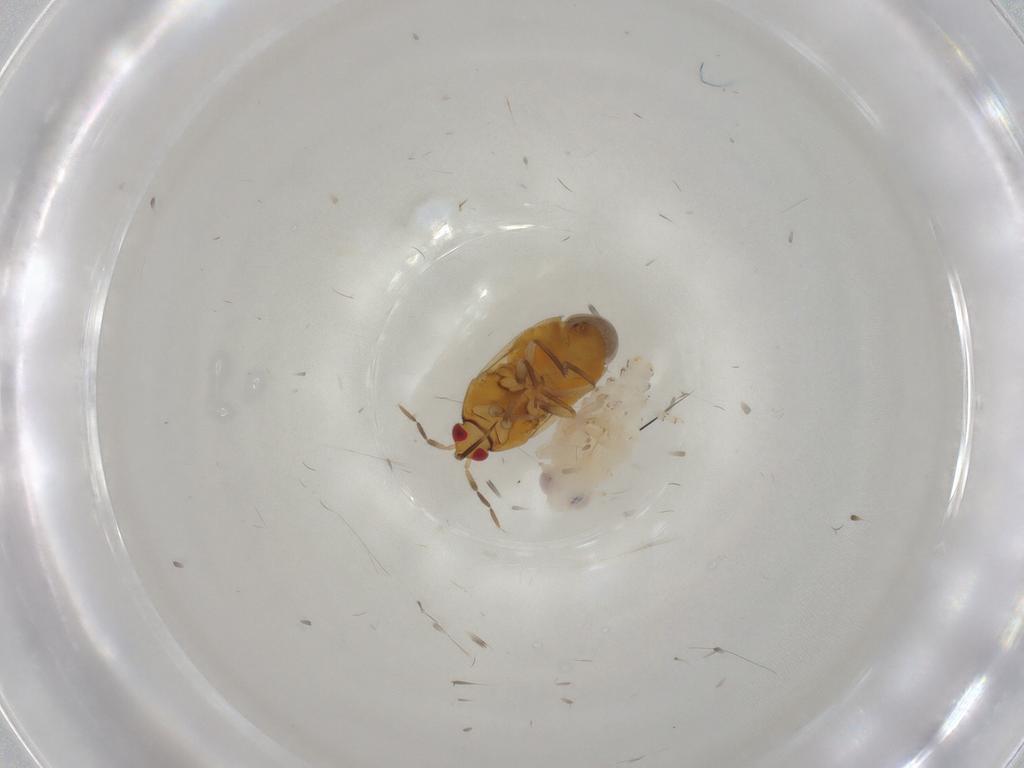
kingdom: Animalia
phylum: Arthropoda
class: Insecta
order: Hemiptera
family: Anthocoridae
